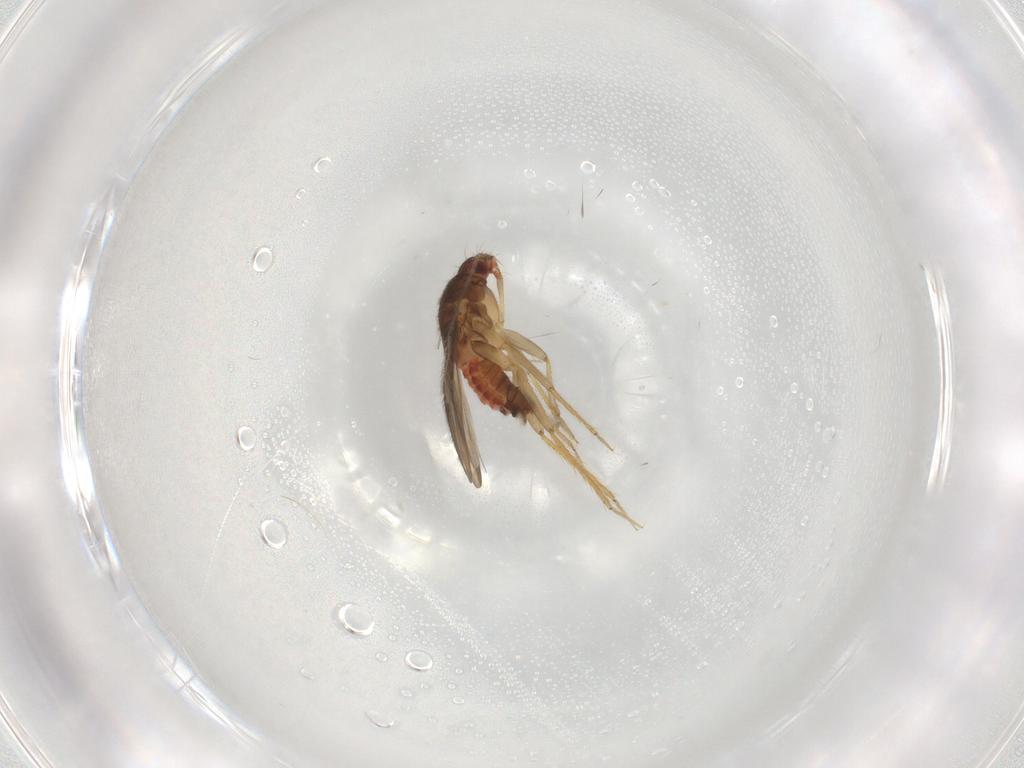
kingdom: Animalia
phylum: Arthropoda
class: Insecta
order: Hemiptera
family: Ceratocombidae
